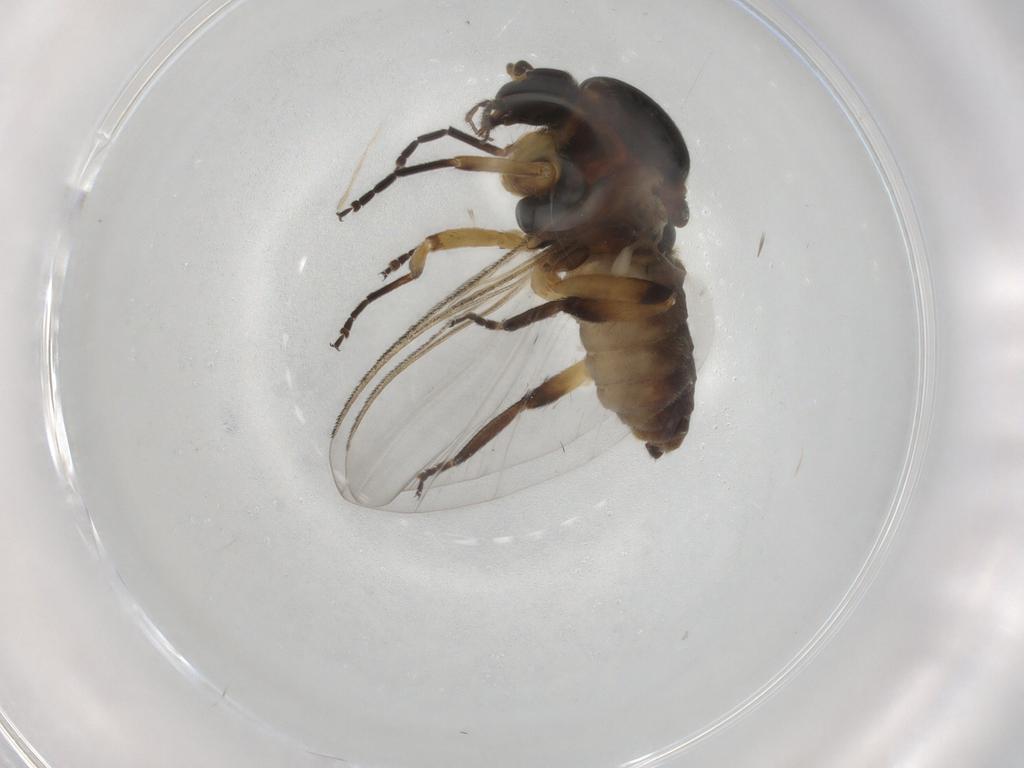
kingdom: Animalia
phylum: Arthropoda
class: Insecta
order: Diptera
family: Simuliidae
